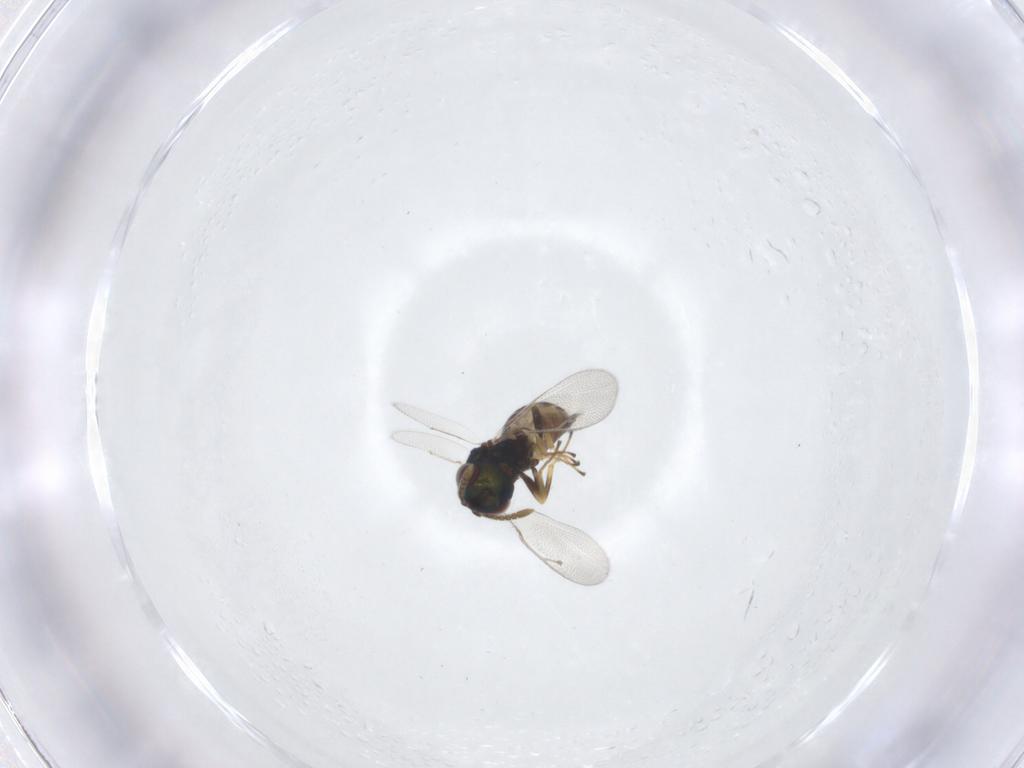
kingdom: Animalia
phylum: Arthropoda
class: Insecta
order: Hymenoptera
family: Pteromalidae
